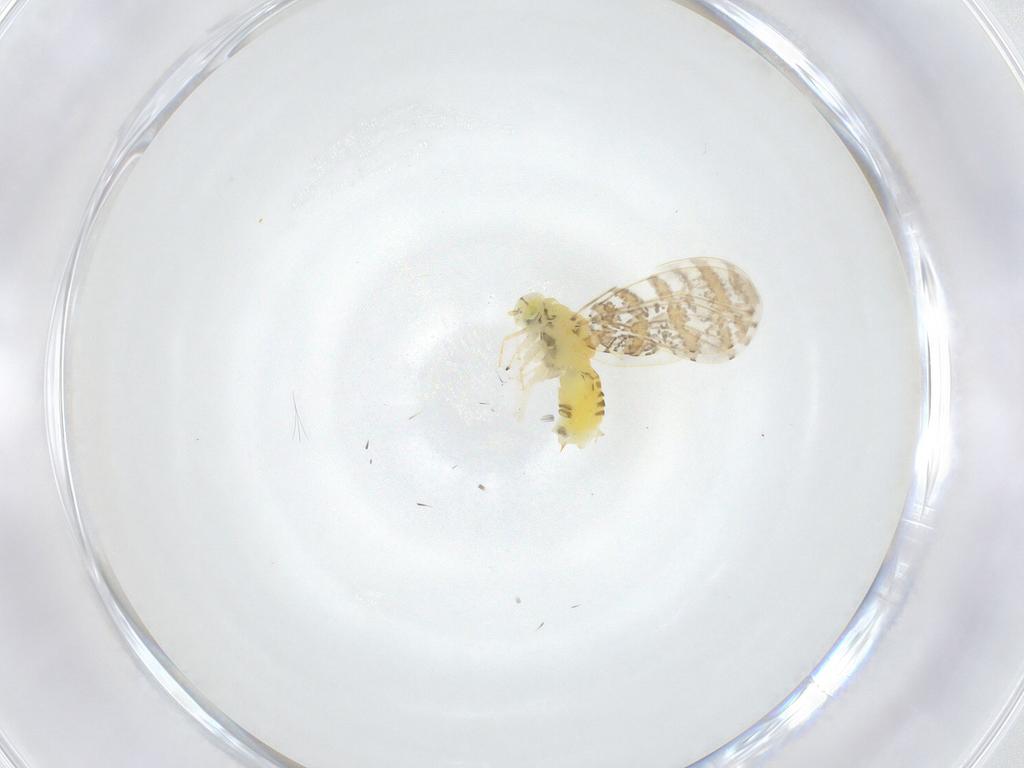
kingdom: Animalia
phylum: Arthropoda
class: Insecta
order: Hemiptera
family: Aleyrodidae
